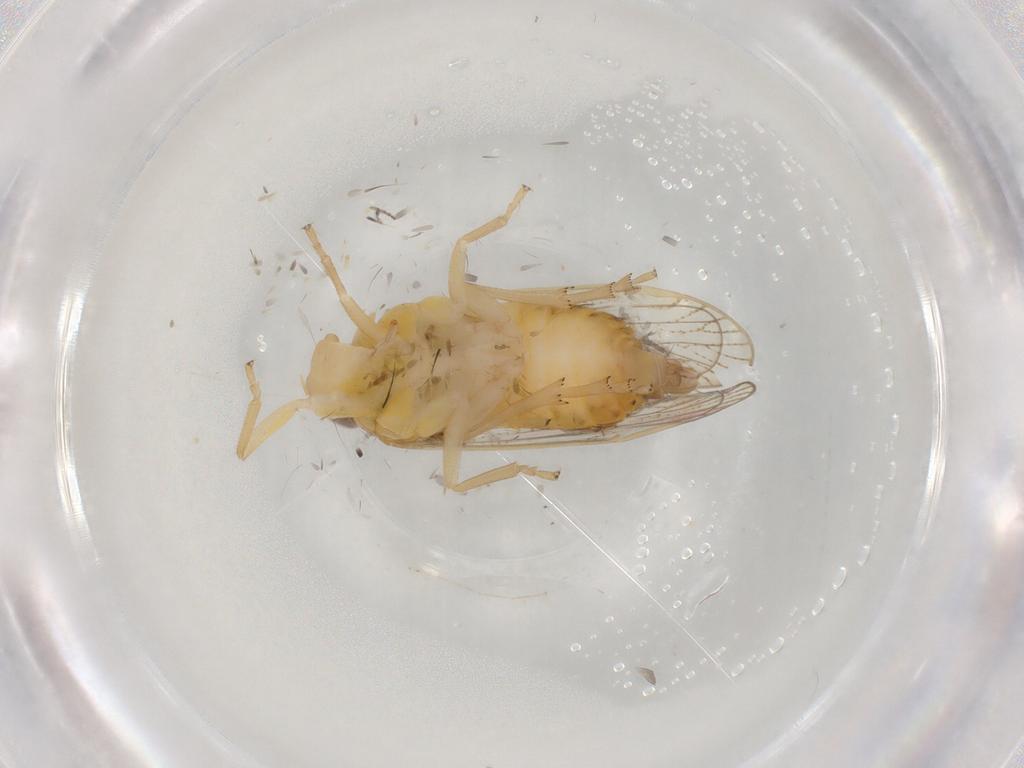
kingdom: Animalia
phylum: Arthropoda
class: Insecta
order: Hemiptera
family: Cixiidae
